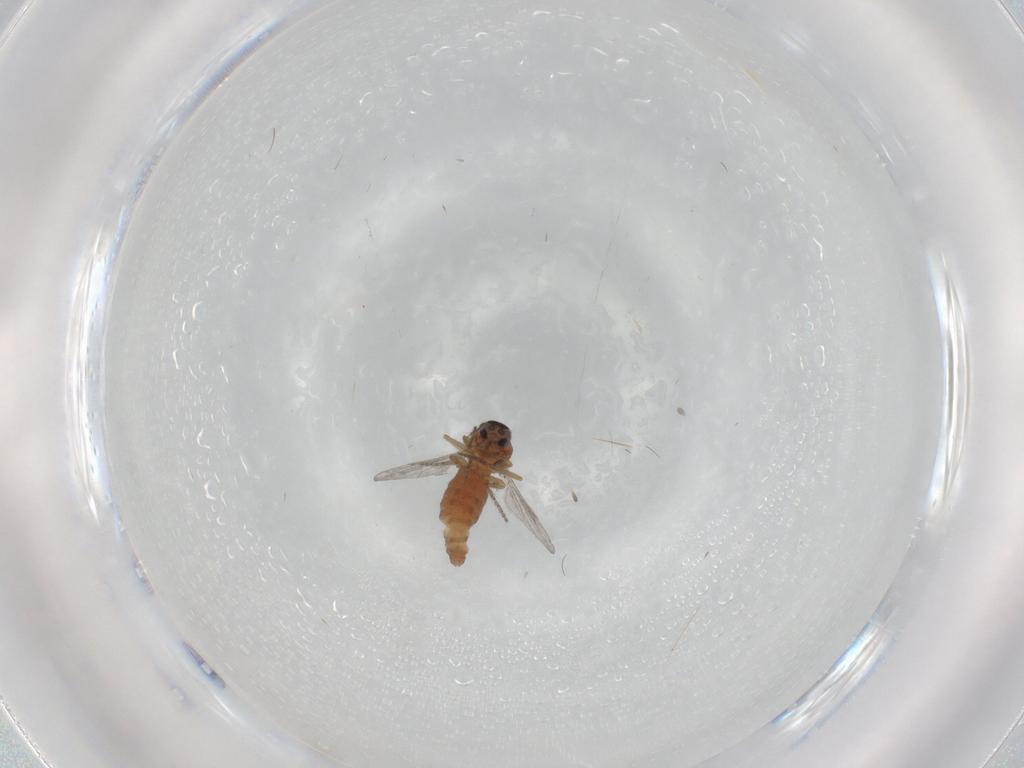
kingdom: Animalia
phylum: Arthropoda
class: Insecta
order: Diptera
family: Ceratopogonidae
